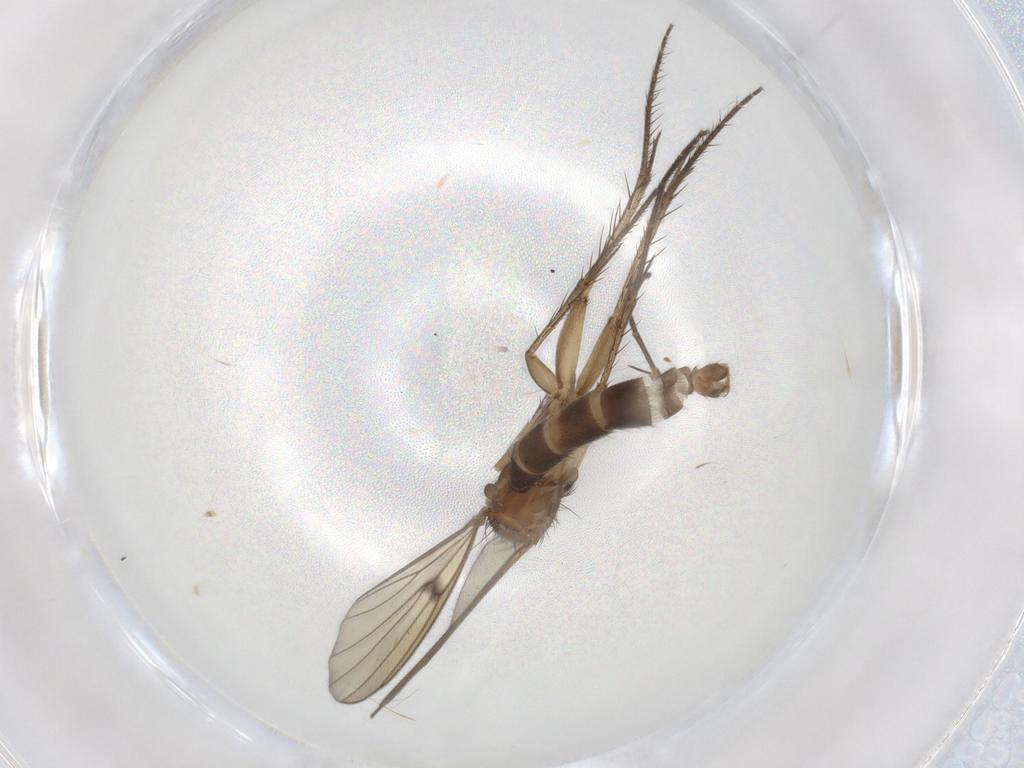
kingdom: Animalia
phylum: Arthropoda
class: Insecta
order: Diptera
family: Mycetophilidae
